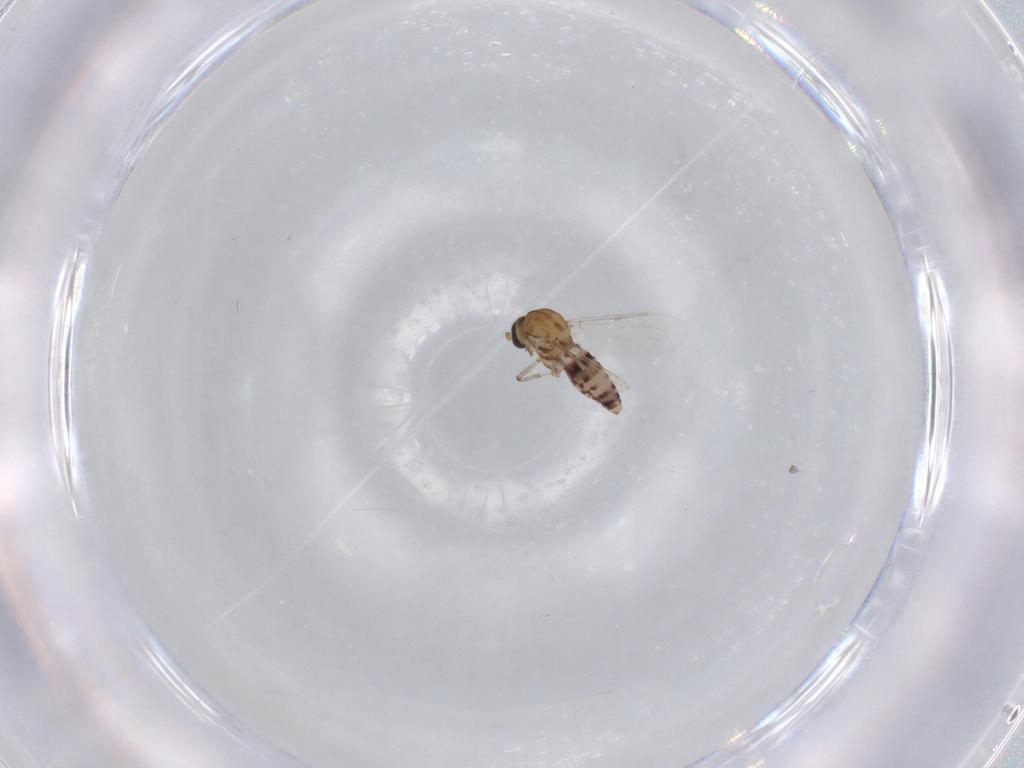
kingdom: Animalia
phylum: Arthropoda
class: Insecta
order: Diptera
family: Ceratopogonidae
